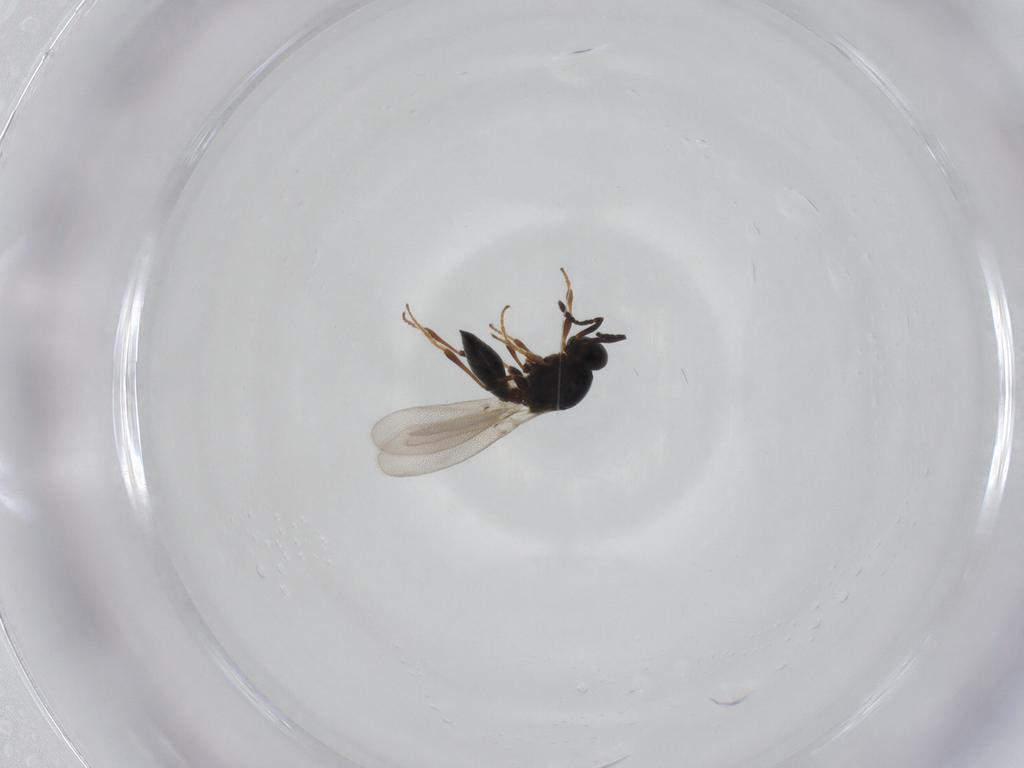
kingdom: Animalia
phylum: Arthropoda
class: Insecta
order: Hymenoptera
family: Platygastridae
